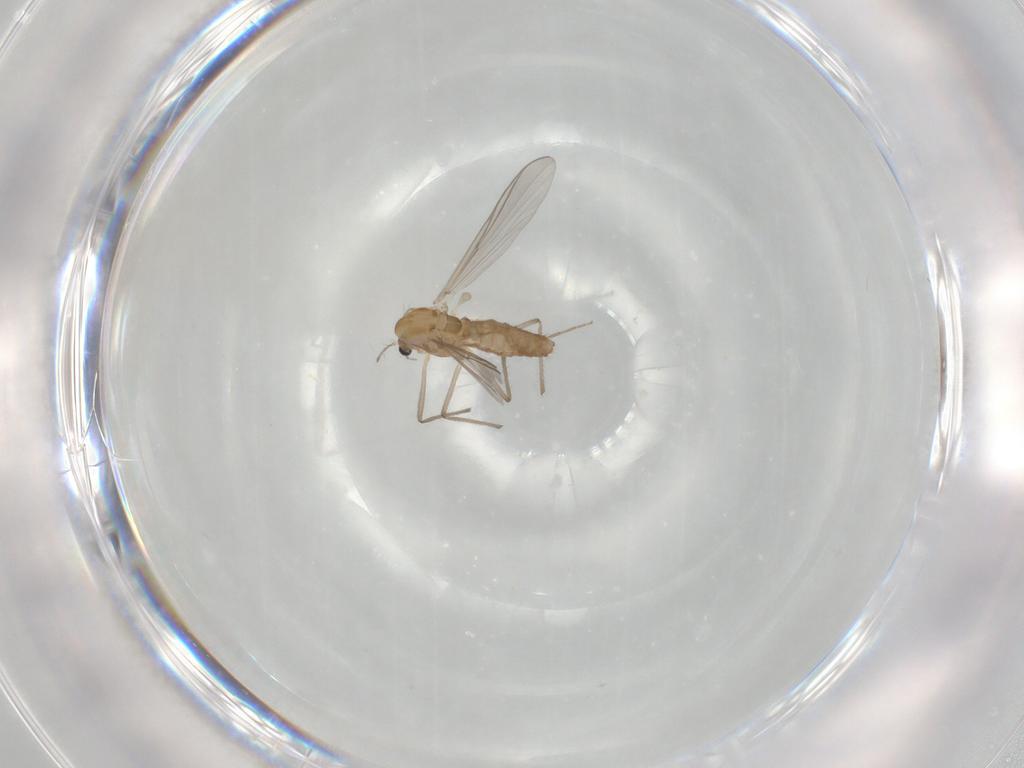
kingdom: Animalia
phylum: Arthropoda
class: Insecta
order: Diptera
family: Chironomidae
